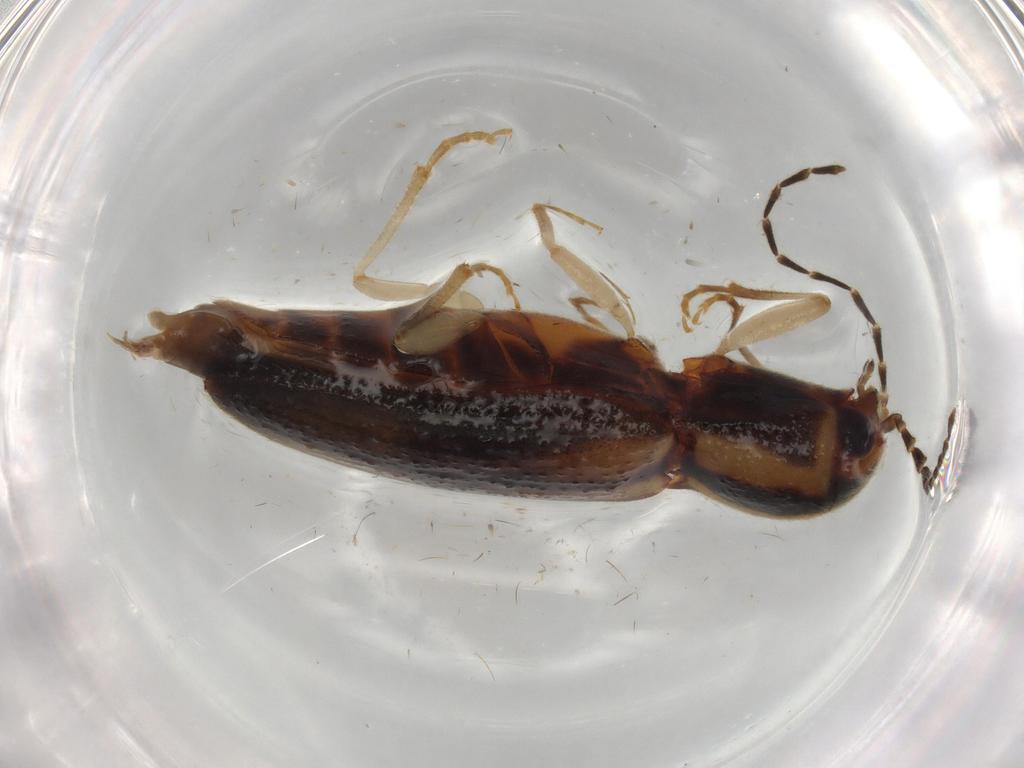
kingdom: Animalia
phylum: Arthropoda
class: Insecta
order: Coleoptera
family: Elateridae
